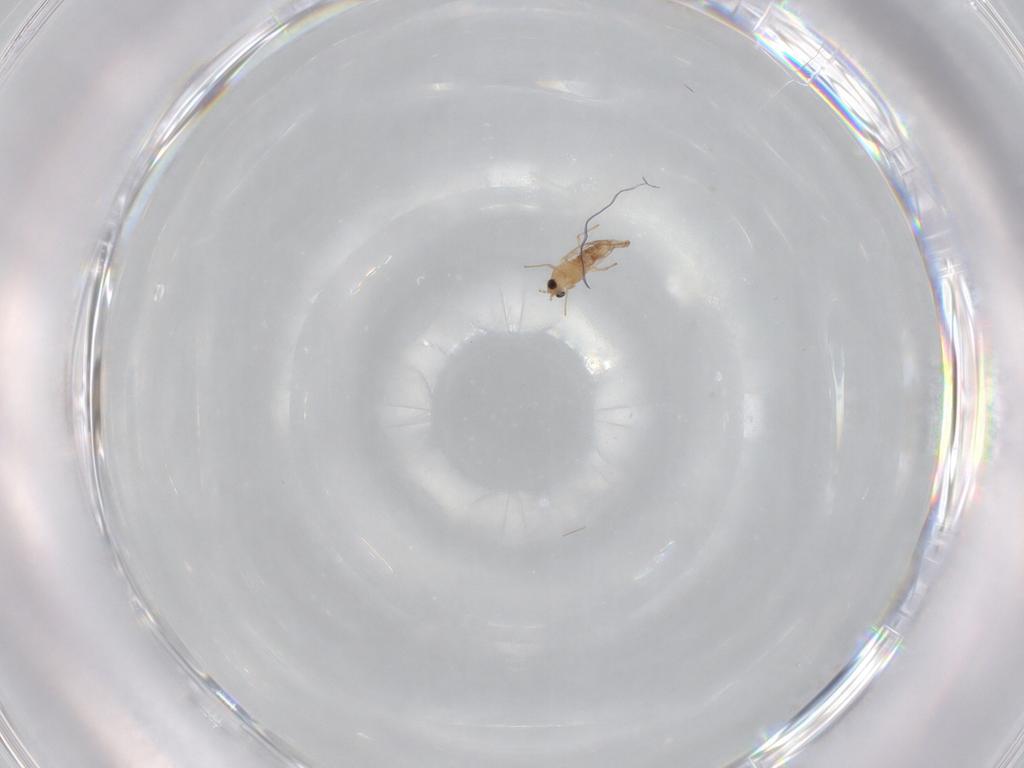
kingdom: Animalia
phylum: Arthropoda
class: Insecta
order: Diptera
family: Chironomidae
